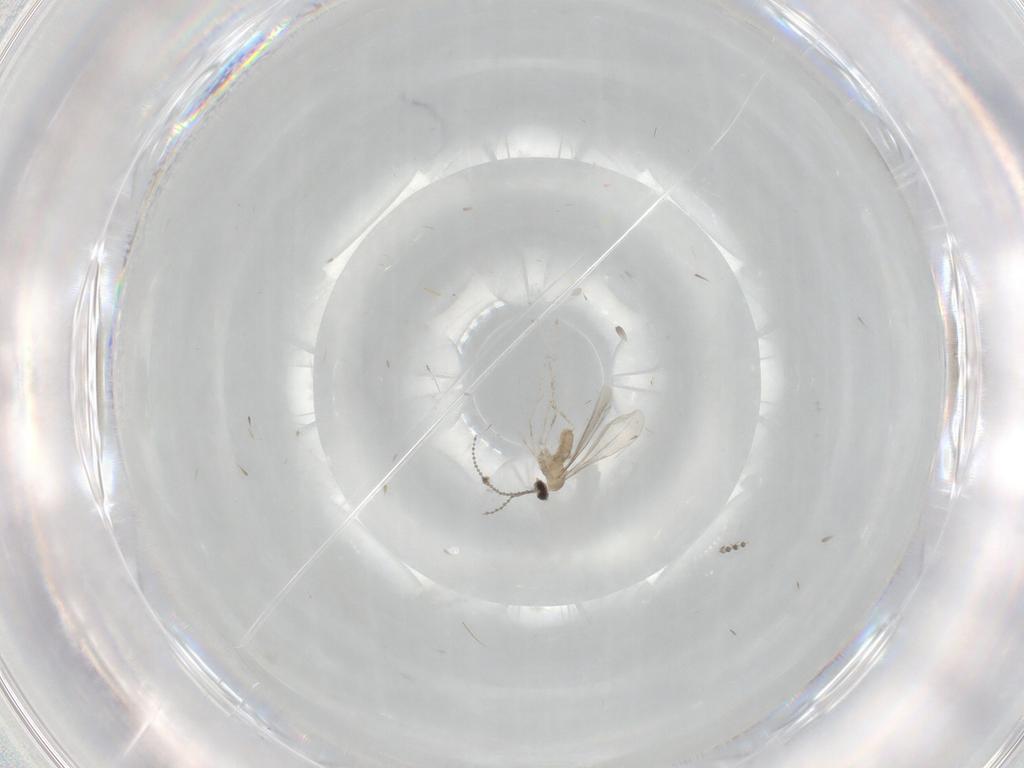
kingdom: Animalia
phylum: Arthropoda
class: Insecta
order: Diptera
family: Cecidomyiidae
